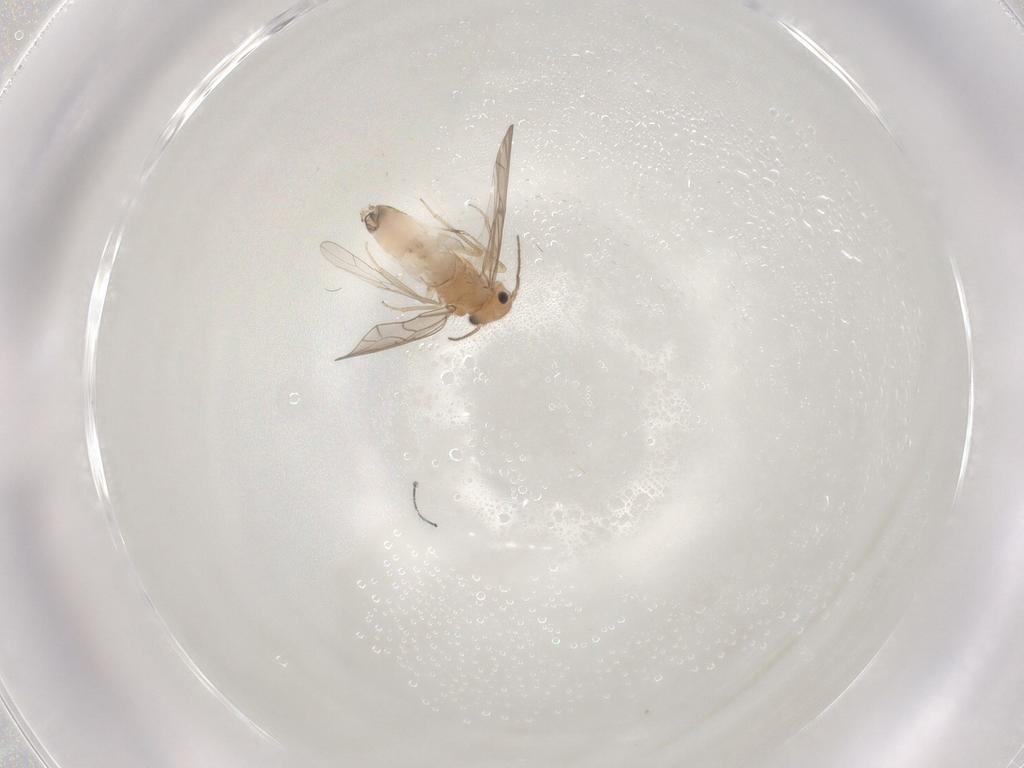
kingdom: Animalia
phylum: Arthropoda
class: Insecta
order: Psocodea
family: Ectopsocidae
